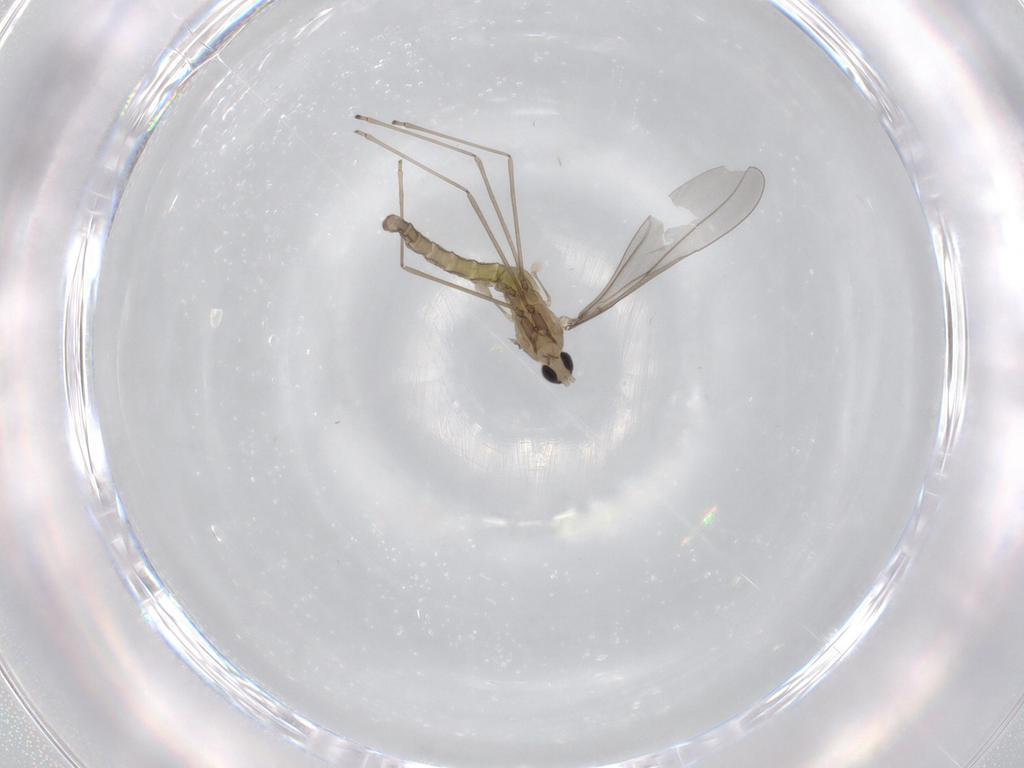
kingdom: Animalia
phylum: Arthropoda
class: Insecta
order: Diptera
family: Cecidomyiidae
